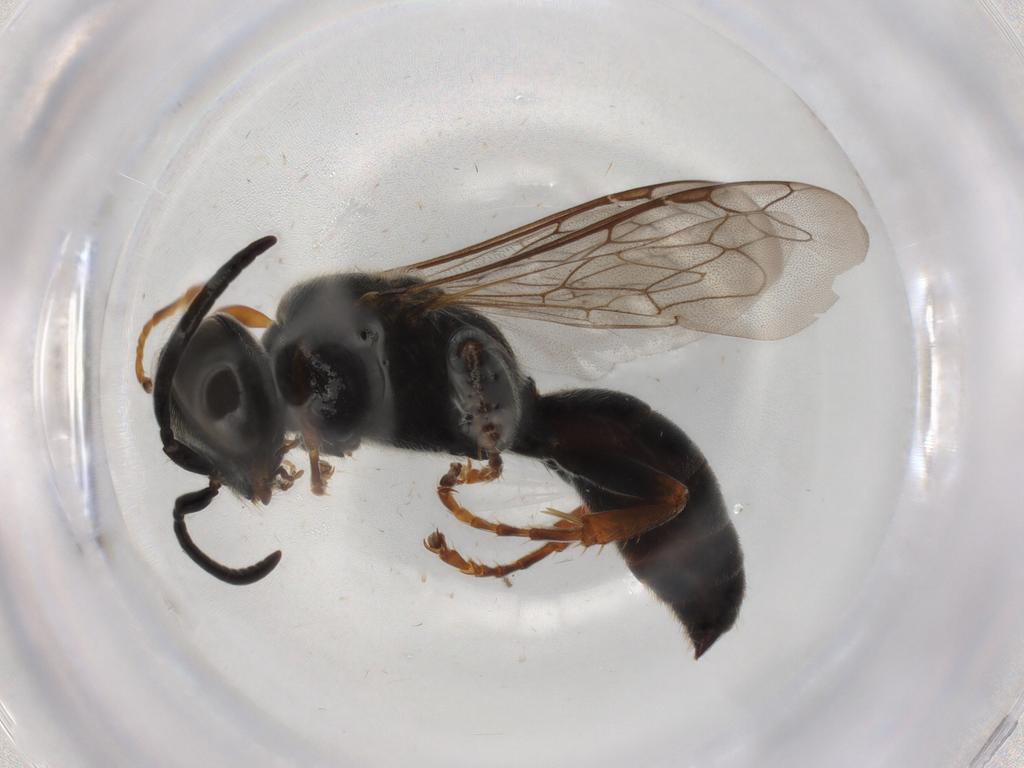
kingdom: Animalia
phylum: Arthropoda
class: Insecta
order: Hymenoptera
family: Crabronidae
